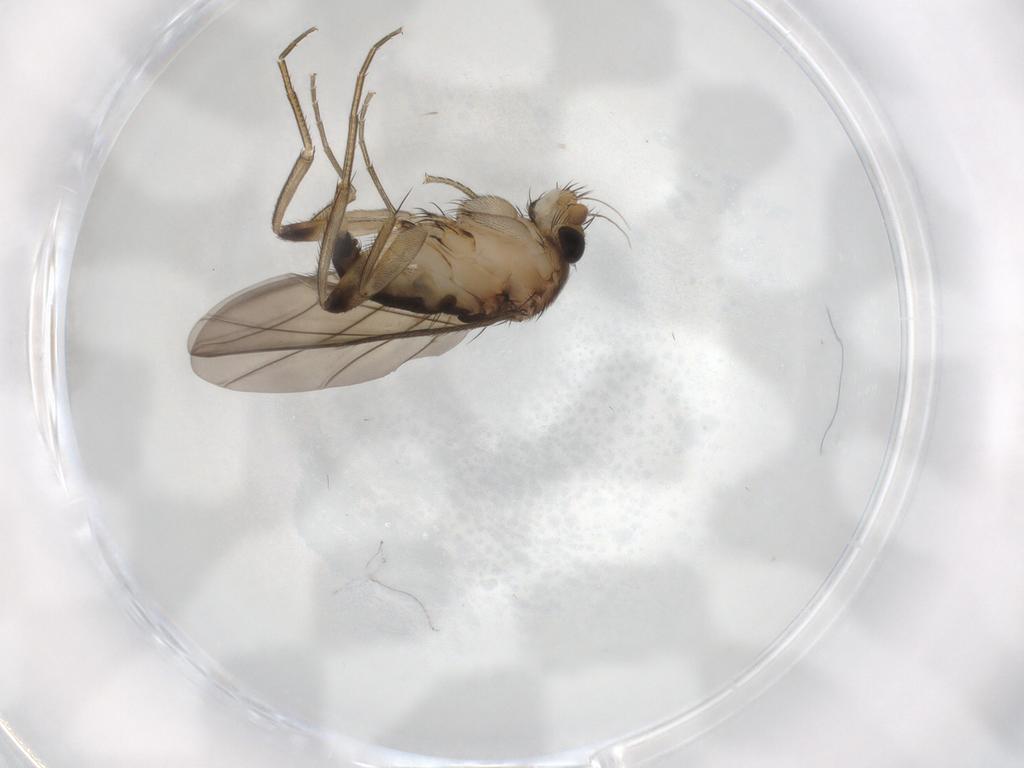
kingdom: Animalia
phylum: Arthropoda
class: Insecta
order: Diptera
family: Phoridae
